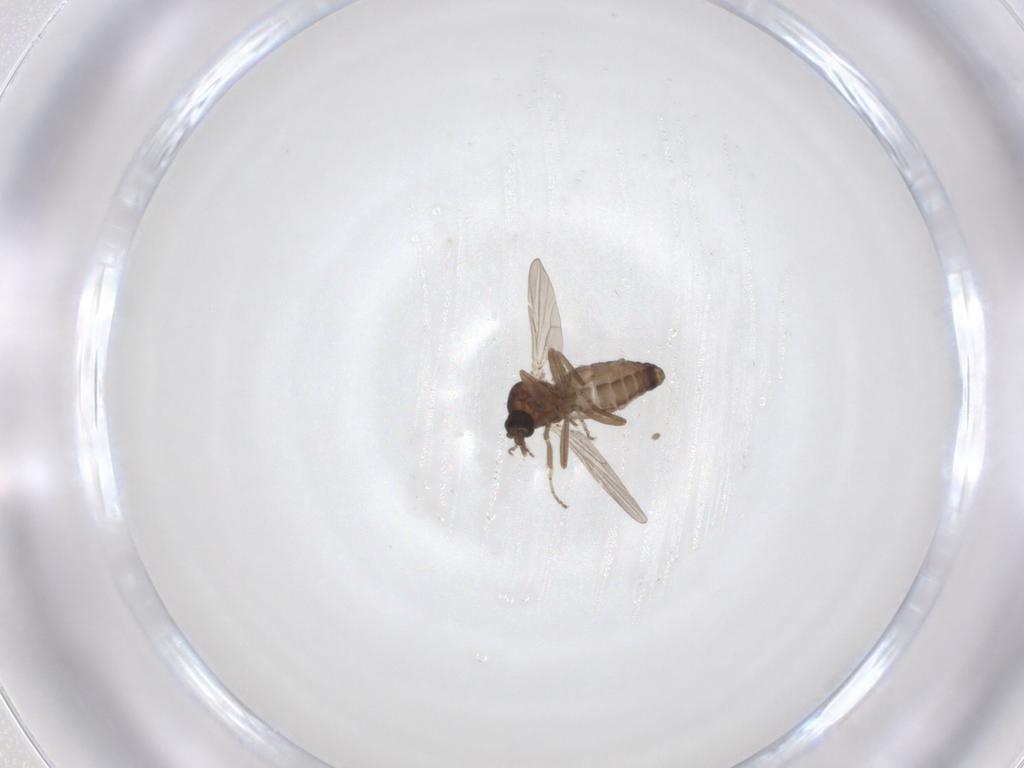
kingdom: Animalia
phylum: Arthropoda
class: Insecta
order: Diptera
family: Ceratopogonidae
